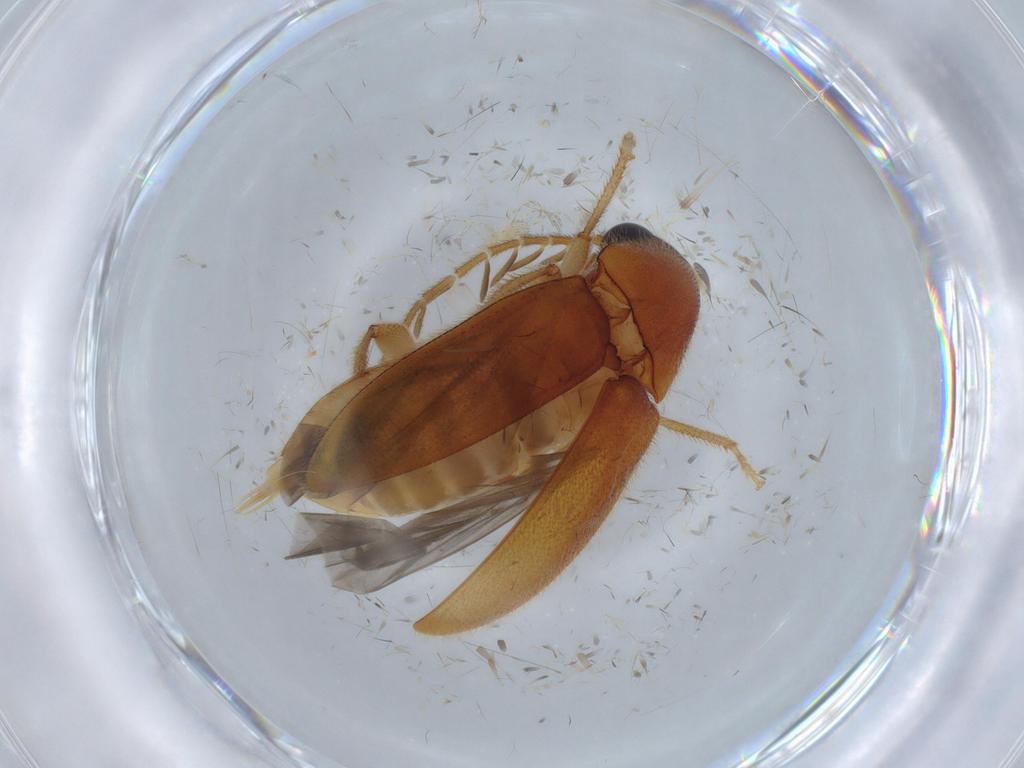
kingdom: Animalia
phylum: Arthropoda
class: Insecta
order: Coleoptera
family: Ptilodactylidae
